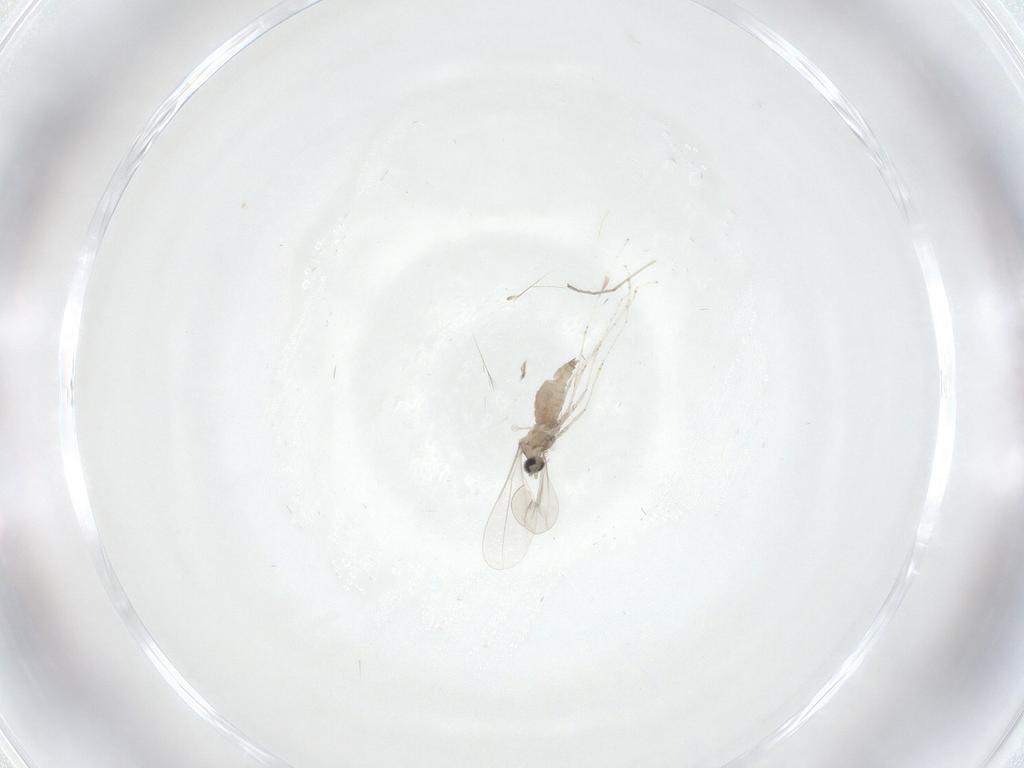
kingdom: Animalia
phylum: Arthropoda
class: Insecta
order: Diptera
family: Cecidomyiidae
